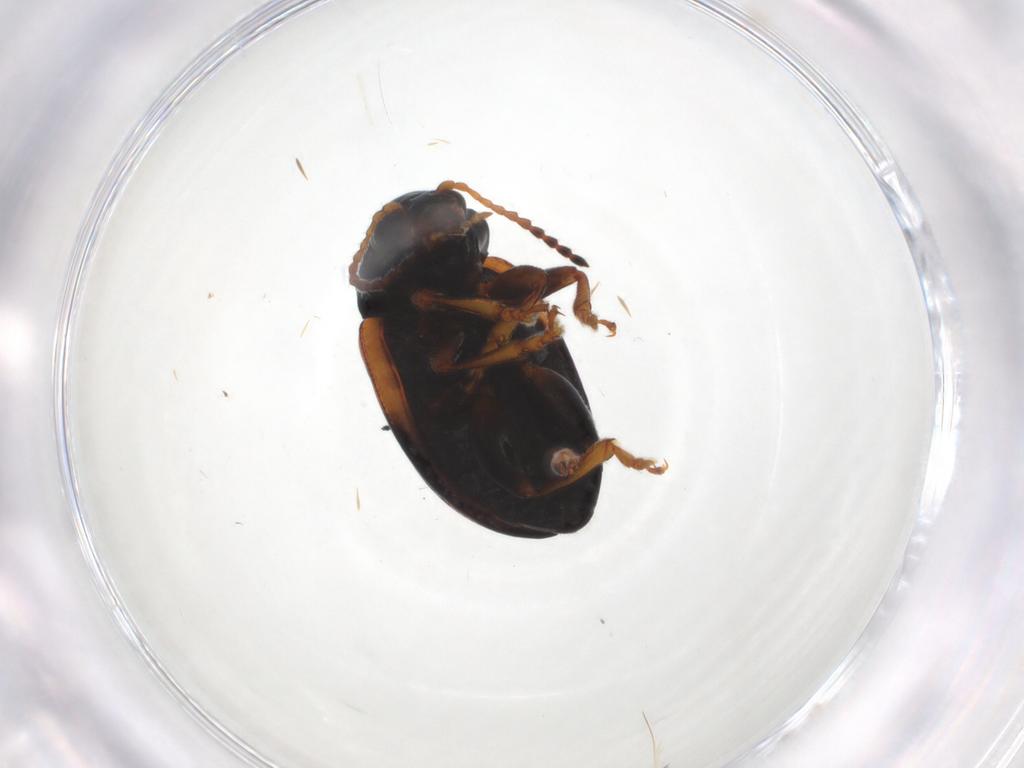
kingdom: Animalia
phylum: Arthropoda
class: Insecta
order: Coleoptera
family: Chrysomelidae
